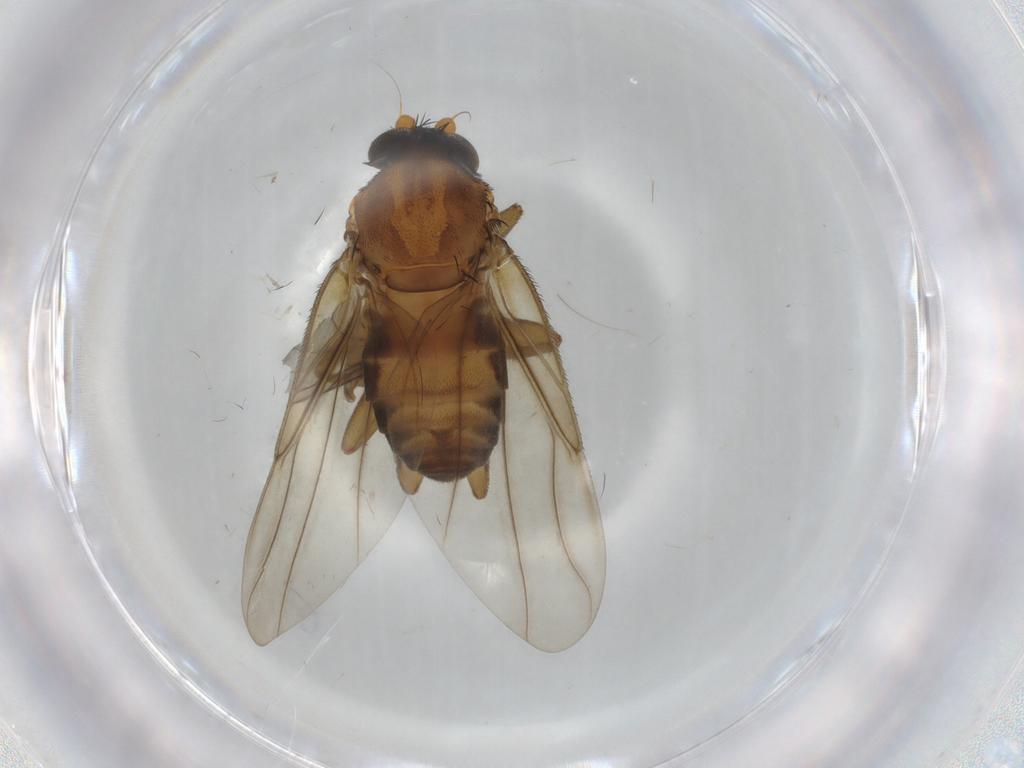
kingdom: Animalia
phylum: Arthropoda
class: Insecta
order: Diptera
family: Phoridae
